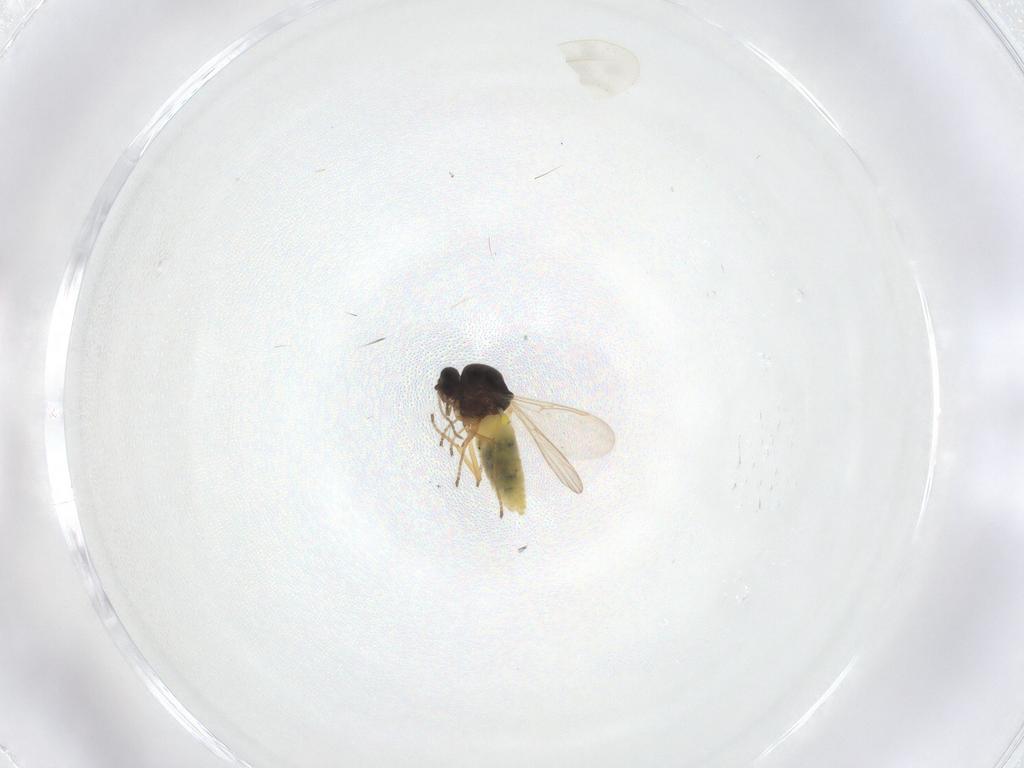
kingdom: Animalia
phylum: Arthropoda
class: Insecta
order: Diptera
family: Ceratopogonidae
